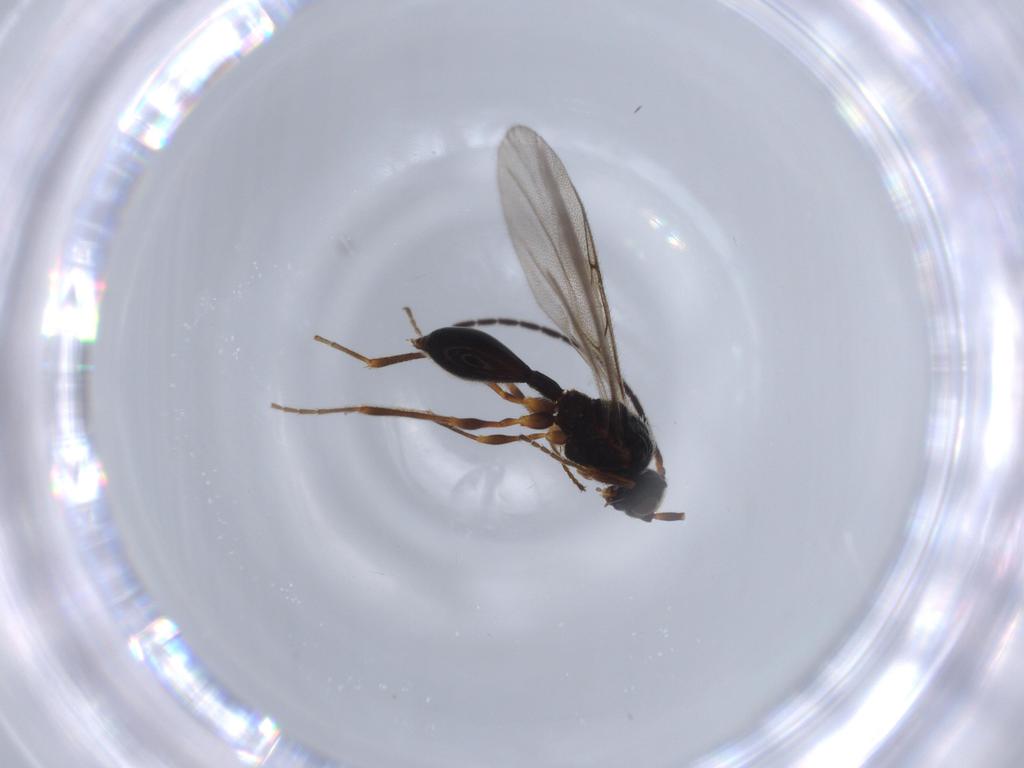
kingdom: Animalia
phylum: Arthropoda
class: Insecta
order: Hymenoptera
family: Diapriidae
